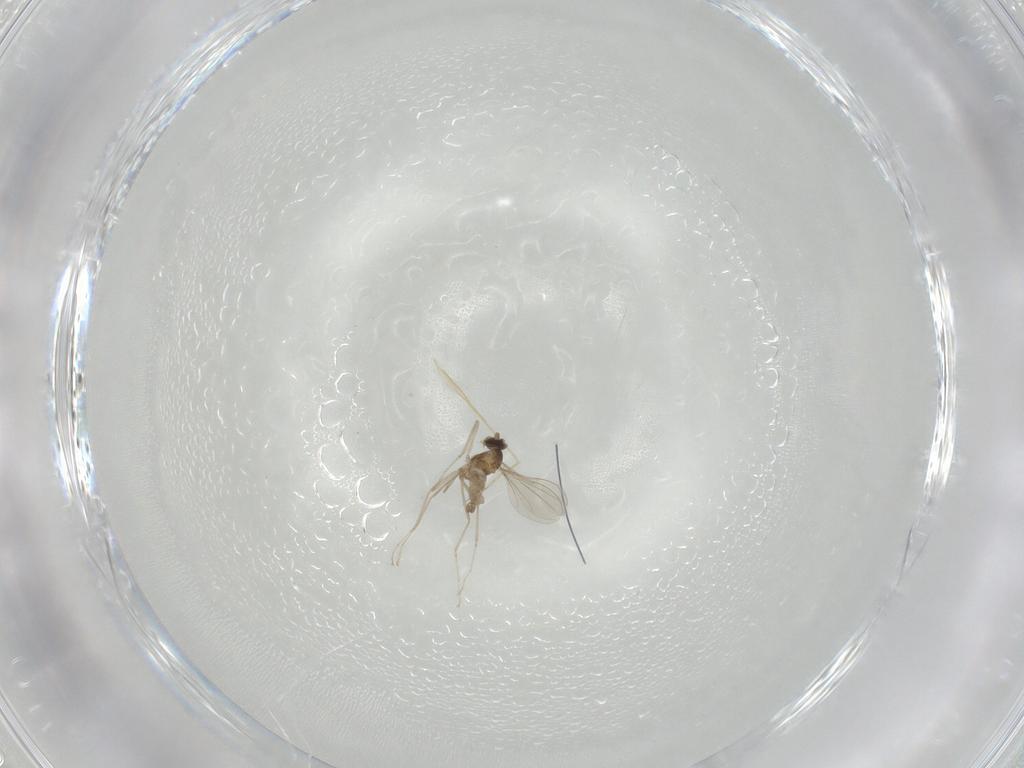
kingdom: Animalia
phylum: Arthropoda
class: Insecta
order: Diptera
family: Cecidomyiidae
